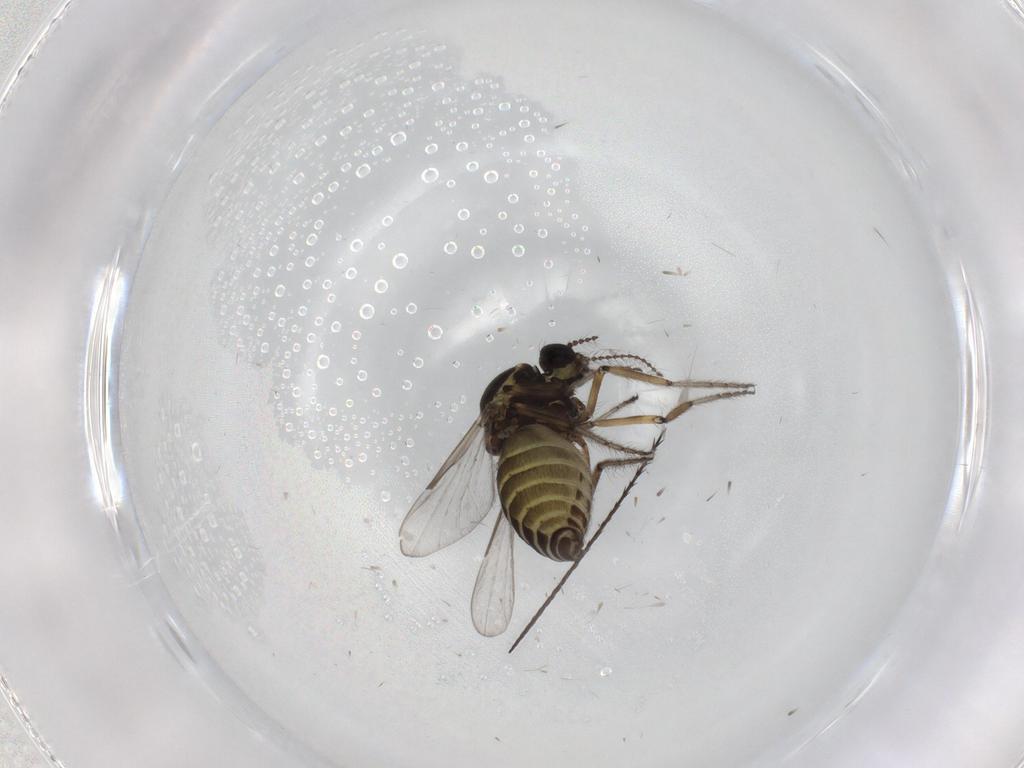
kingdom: Animalia
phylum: Arthropoda
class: Insecta
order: Diptera
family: Ceratopogonidae
